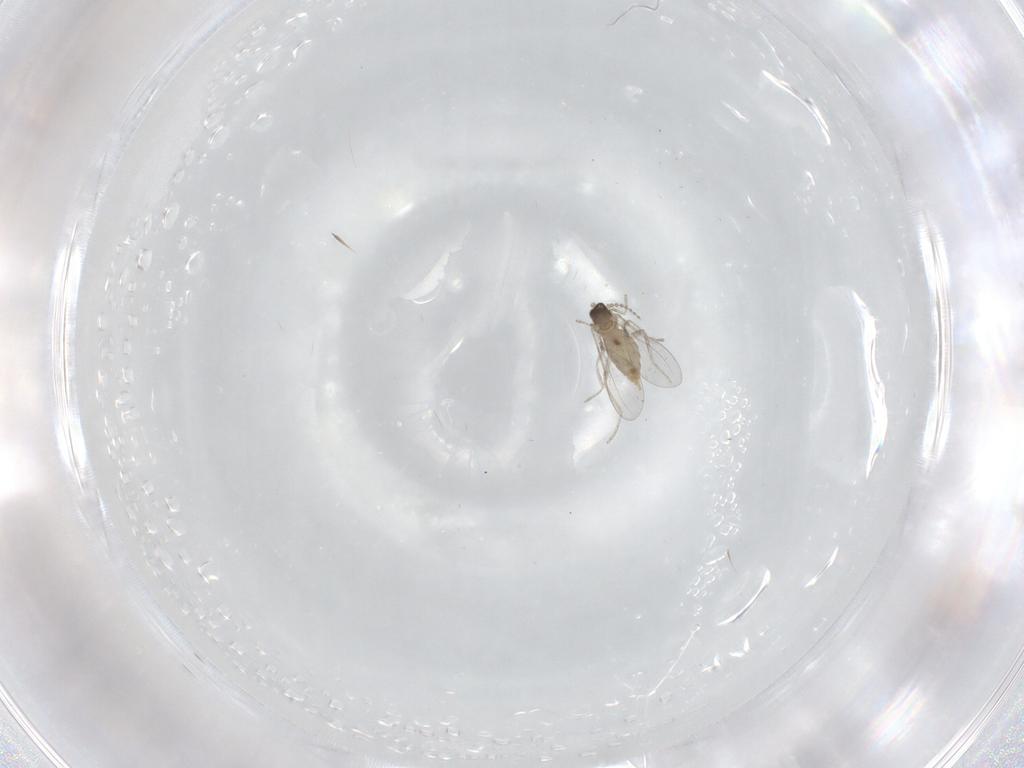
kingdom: Animalia
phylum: Arthropoda
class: Insecta
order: Diptera
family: Cecidomyiidae
